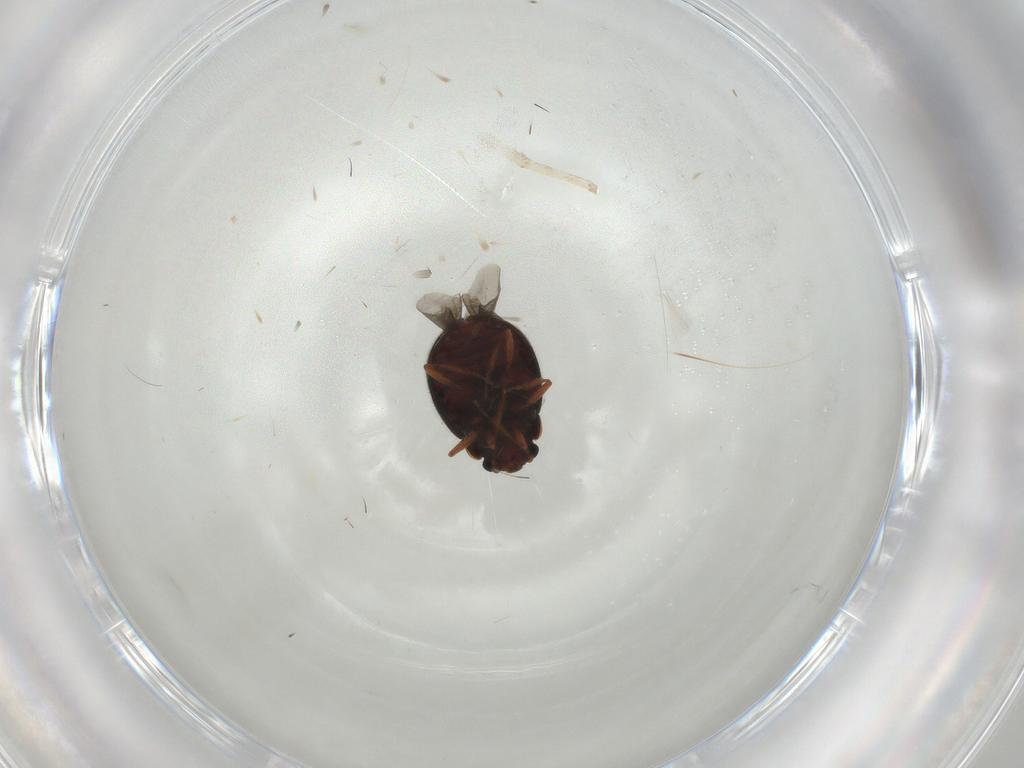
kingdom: Animalia
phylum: Arthropoda
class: Insecta
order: Coleoptera
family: Sphindidae
